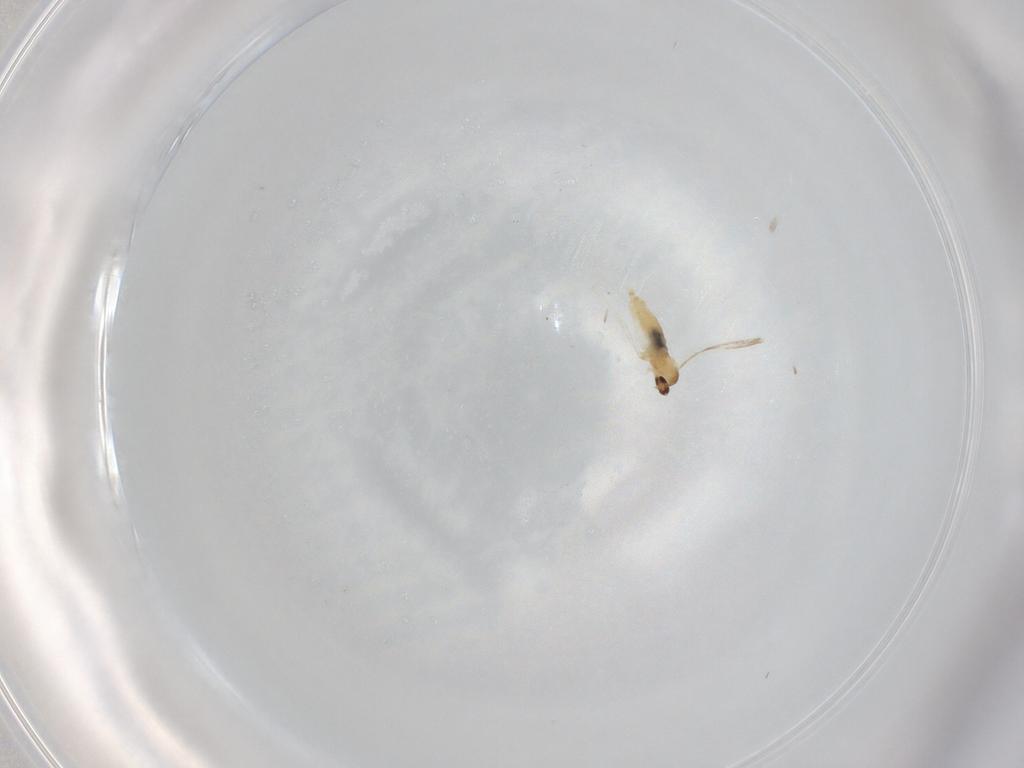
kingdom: Animalia
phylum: Arthropoda
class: Insecta
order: Diptera
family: Cecidomyiidae
